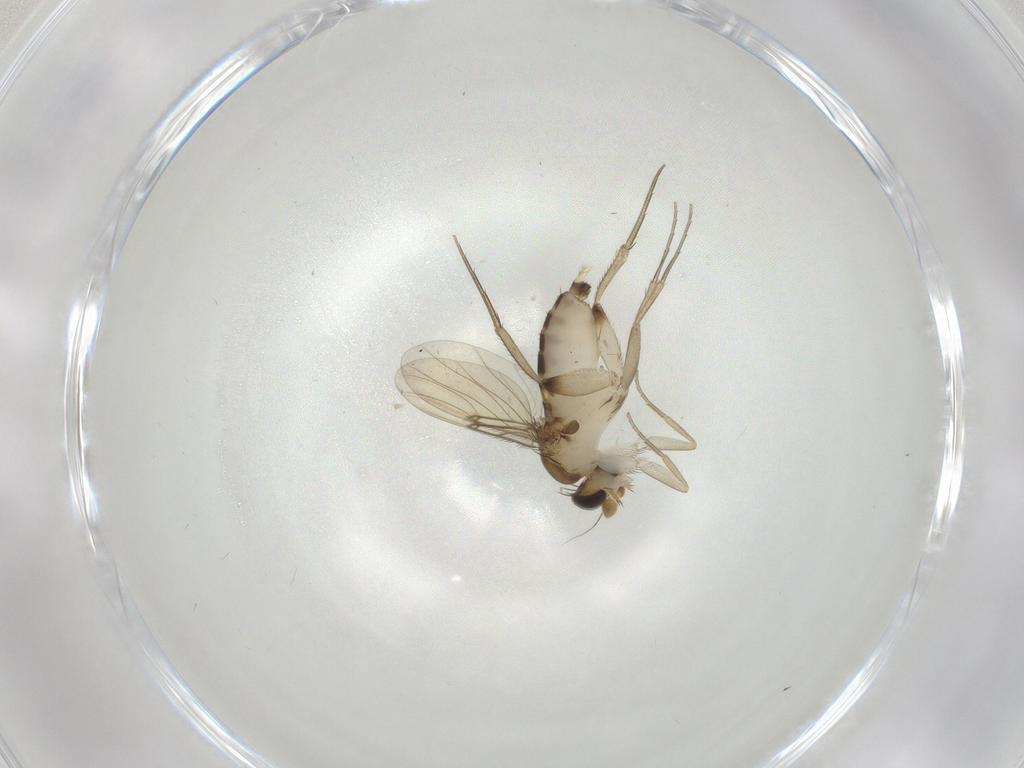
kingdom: Animalia
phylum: Arthropoda
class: Insecta
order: Diptera
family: Phoridae
